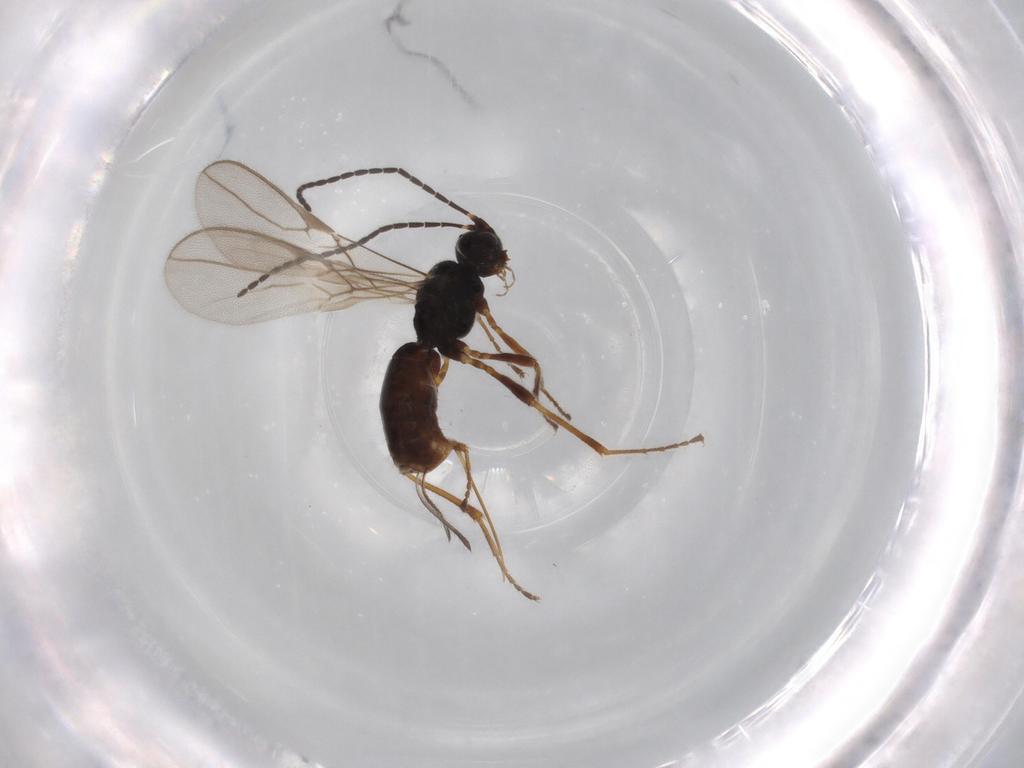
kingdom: Animalia
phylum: Arthropoda
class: Insecta
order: Hymenoptera
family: Braconidae
